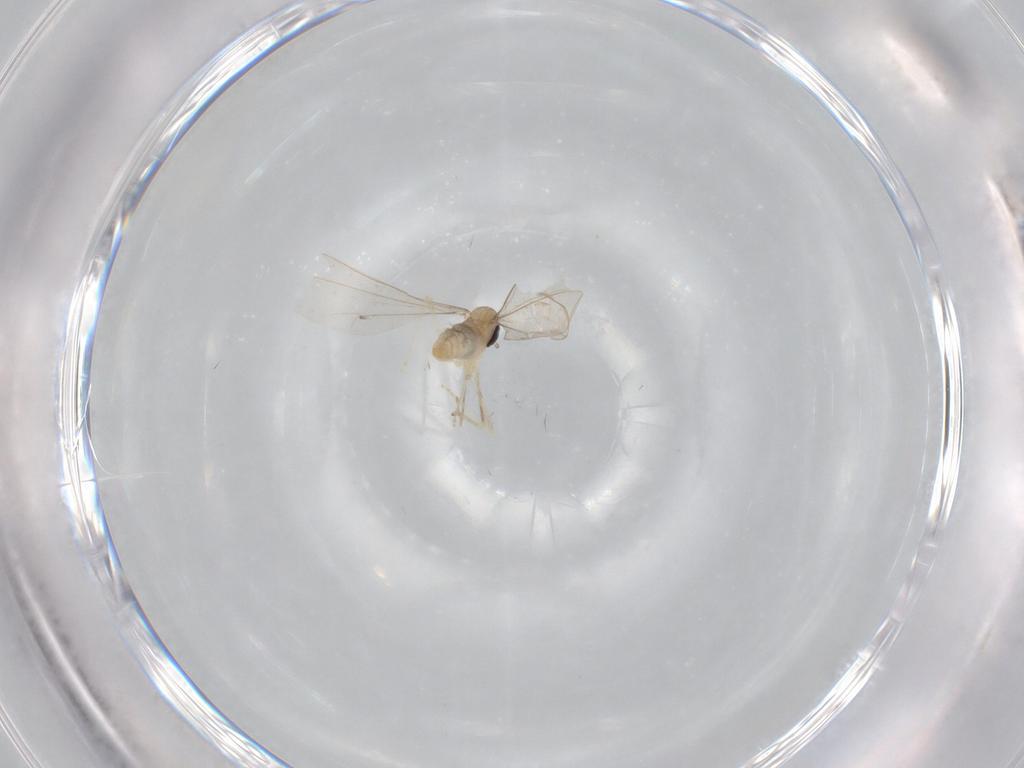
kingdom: Animalia
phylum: Arthropoda
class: Insecta
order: Diptera
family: Cecidomyiidae
